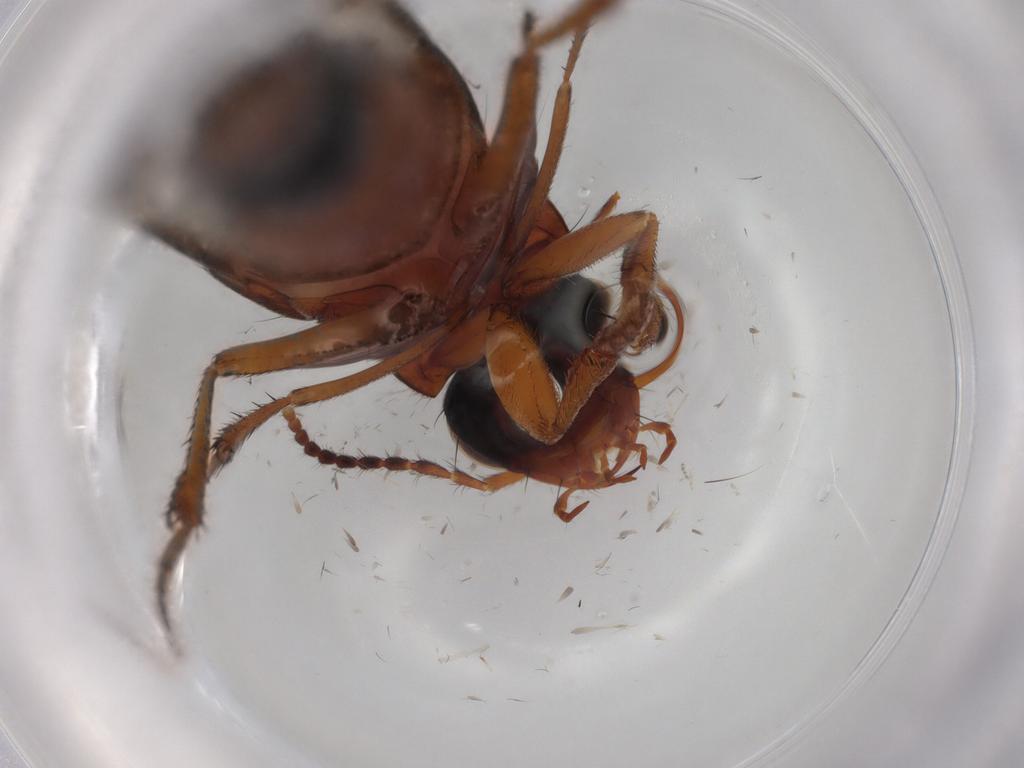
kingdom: Animalia
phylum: Arthropoda
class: Insecta
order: Coleoptera
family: Staphylinidae
